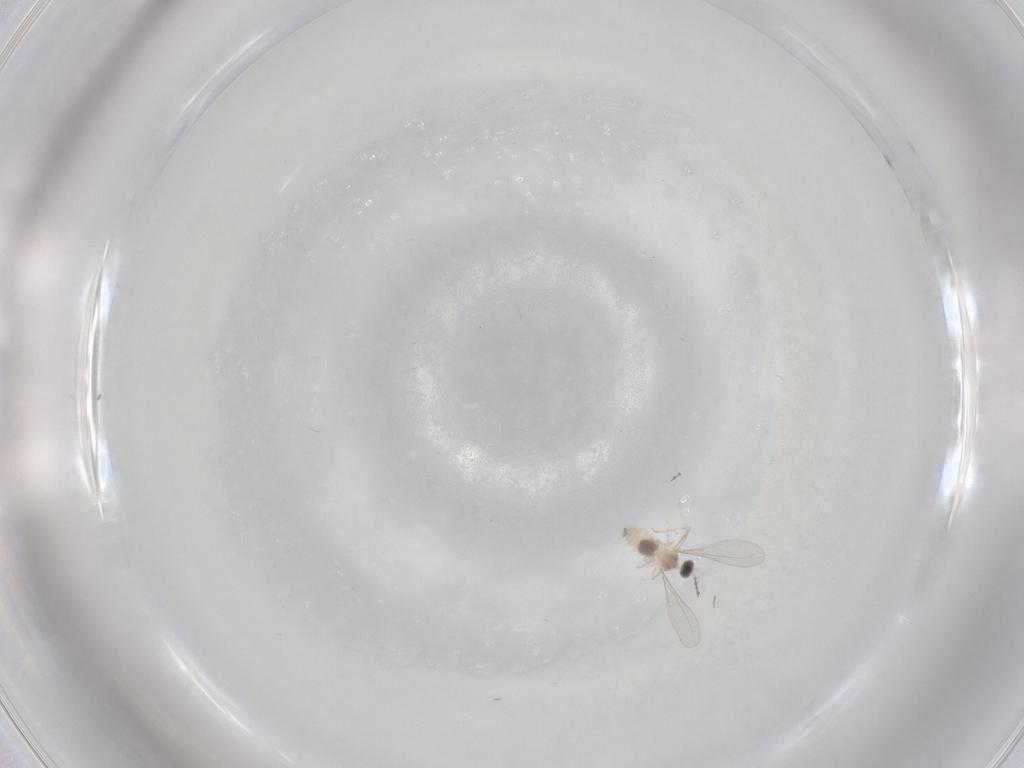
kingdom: Animalia
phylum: Arthropoda
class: Insecta
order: Diptera
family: Cecidomyiidae
